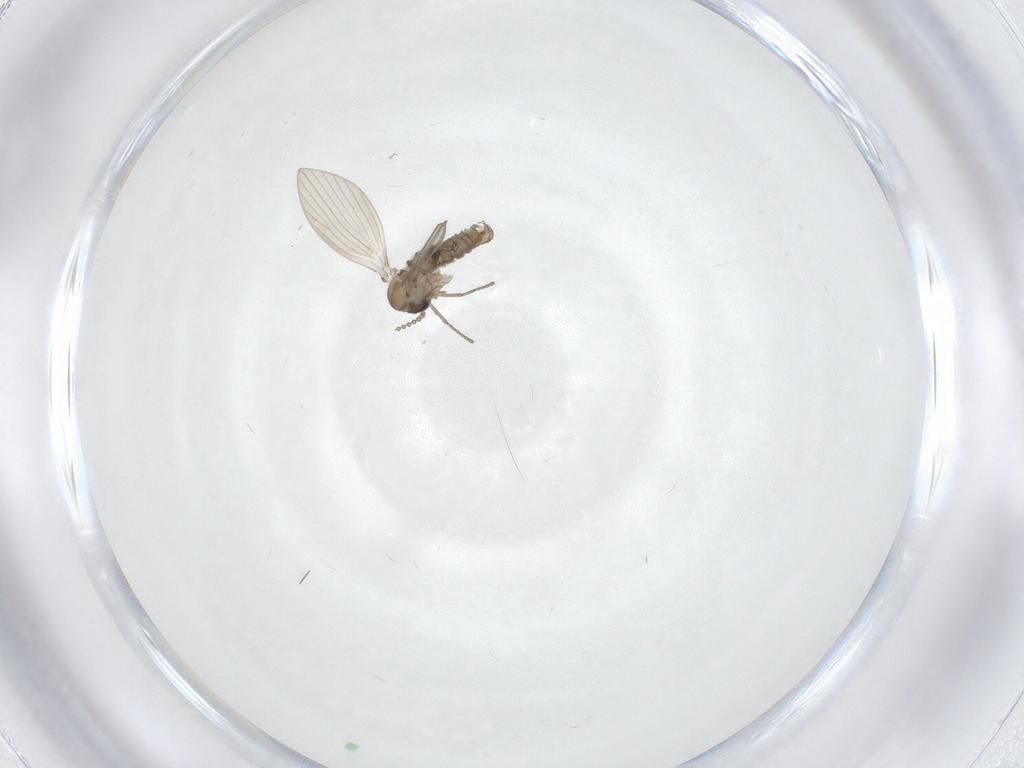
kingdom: Animalia
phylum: Arthropoda
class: Insecta
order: Diptera
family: Psychodidae
